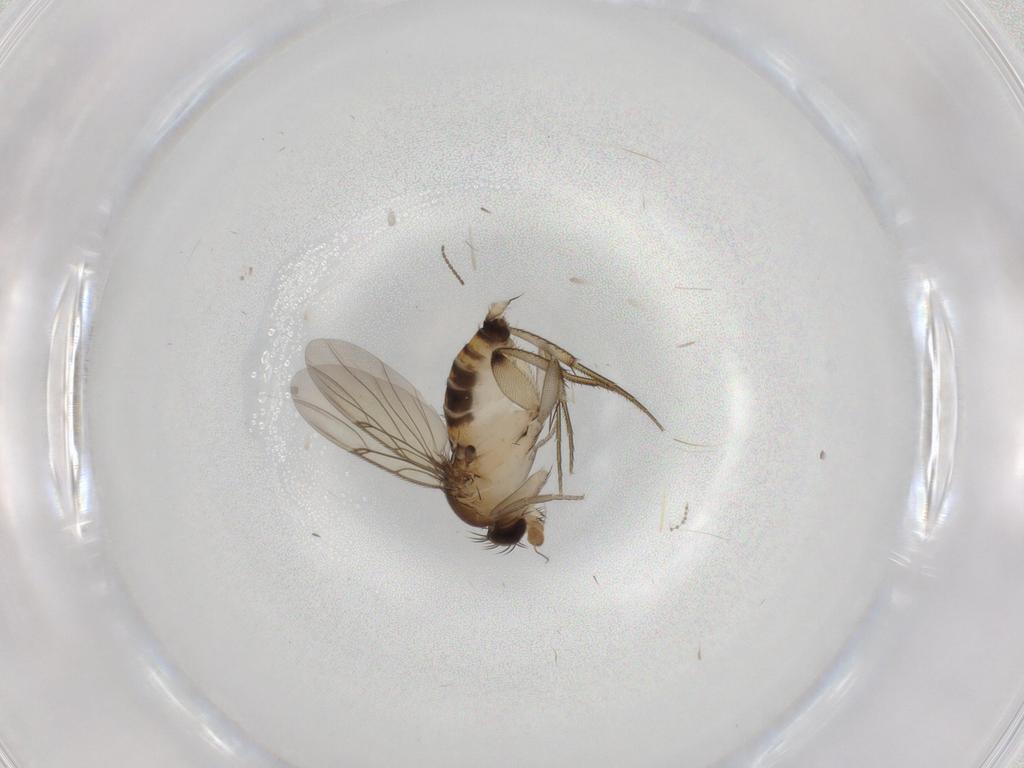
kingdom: Animalia
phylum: Arthropoda
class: Insecta
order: Diptera
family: Phoridae
